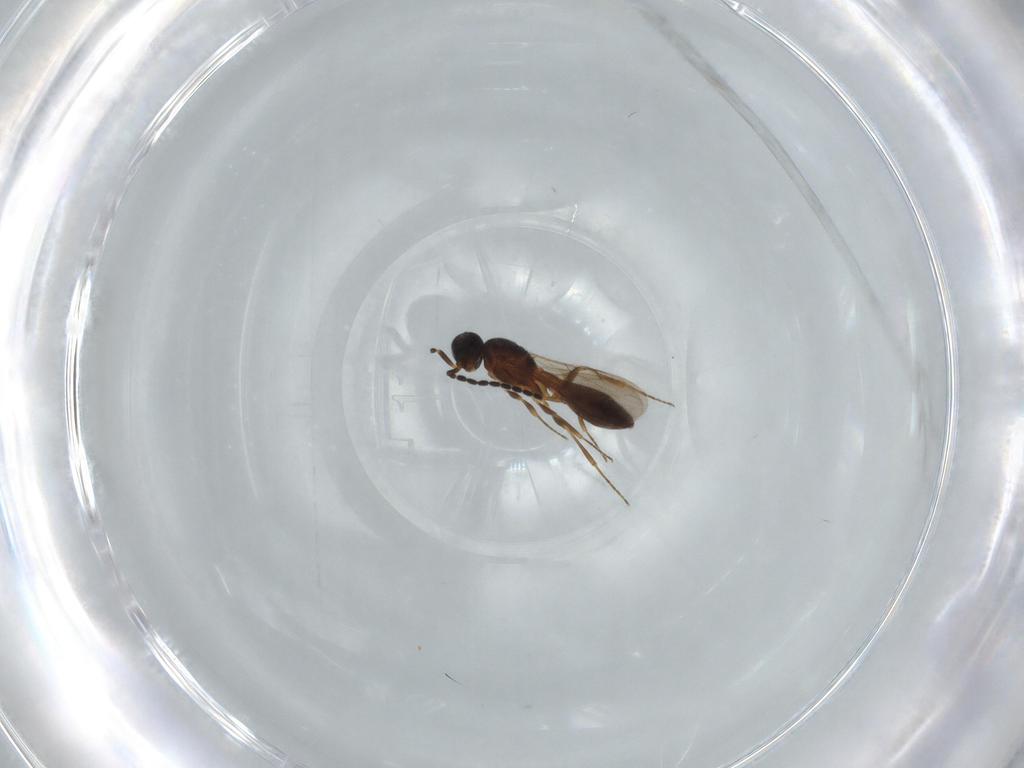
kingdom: Animalia
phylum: Arthropoda
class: Insecta
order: Hymenoptera
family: Scelionidae
